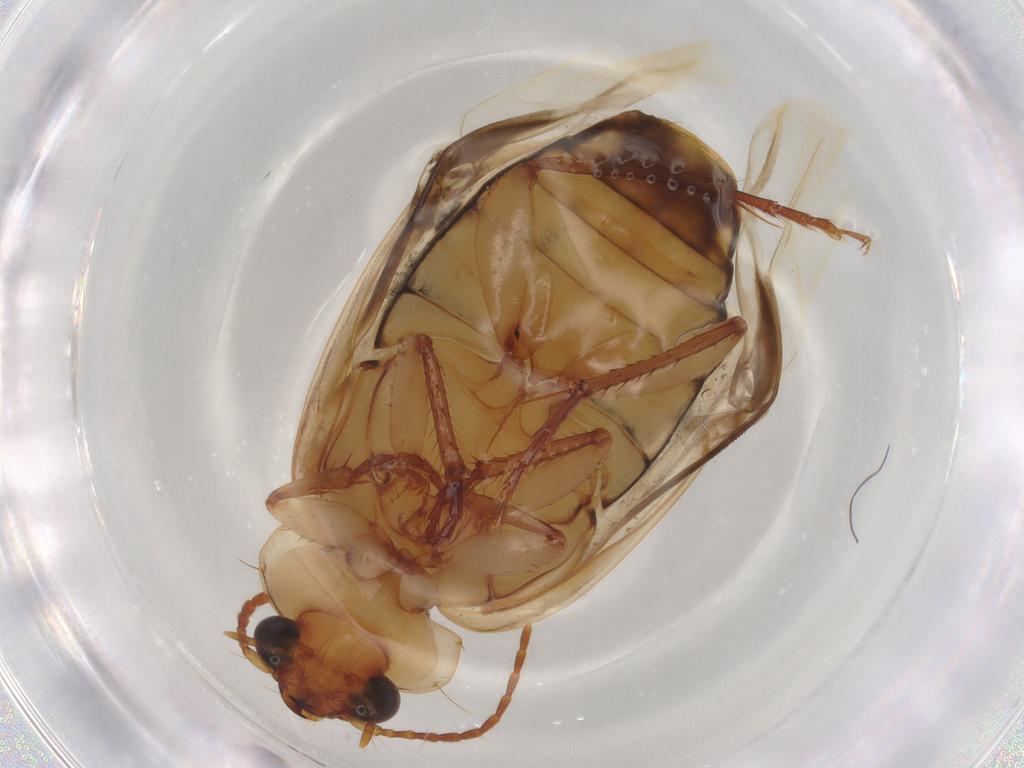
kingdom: Animalia
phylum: Arthropoda
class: Insecta
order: Coleoptera
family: Carabidae
